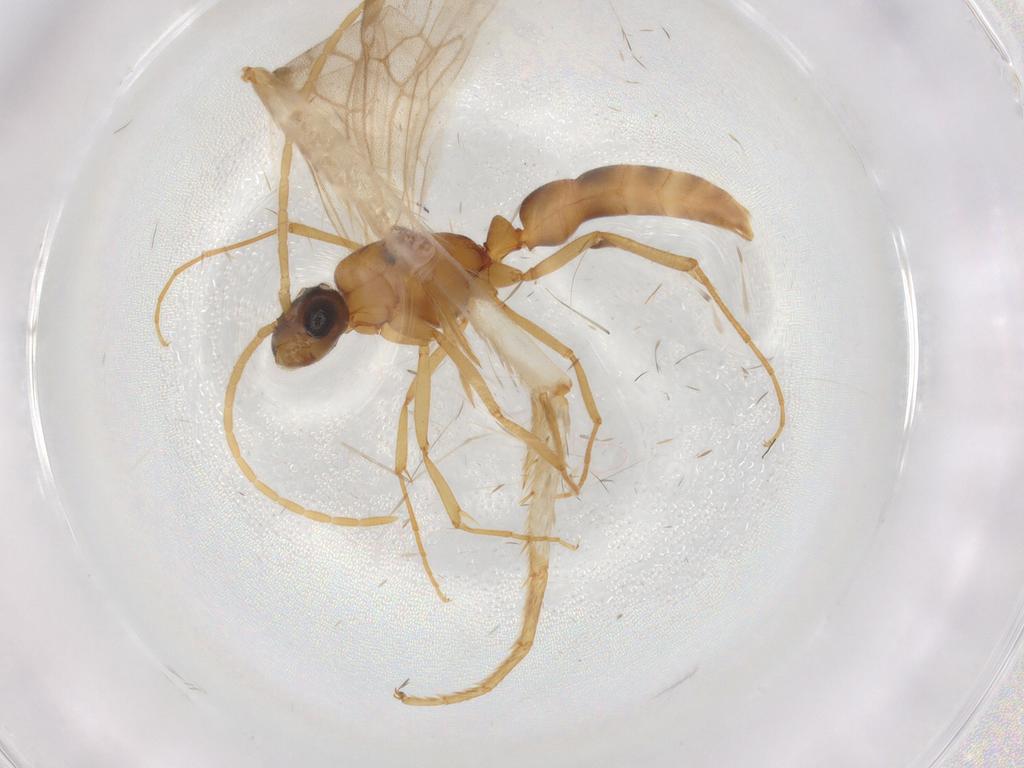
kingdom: Animalia
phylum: Arthropoda
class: Insecta
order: Hymenoptera
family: Formicidae
